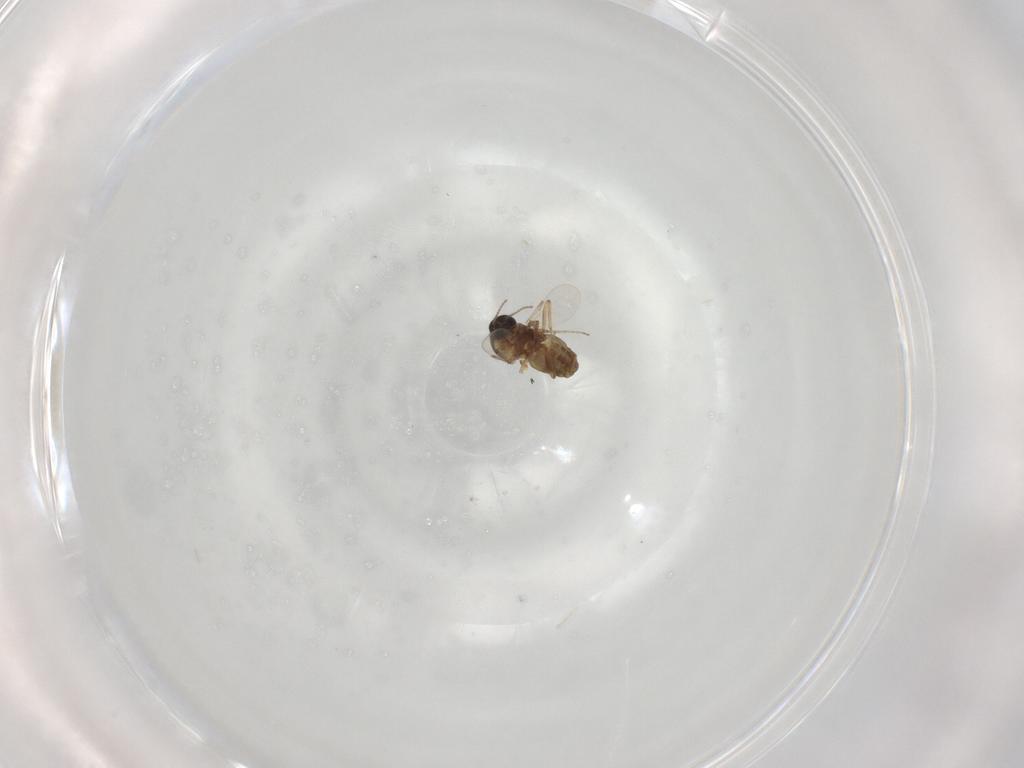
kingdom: Animalia
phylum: Arthropoda
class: Insecta
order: Diptera
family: Ceratopogonidae
